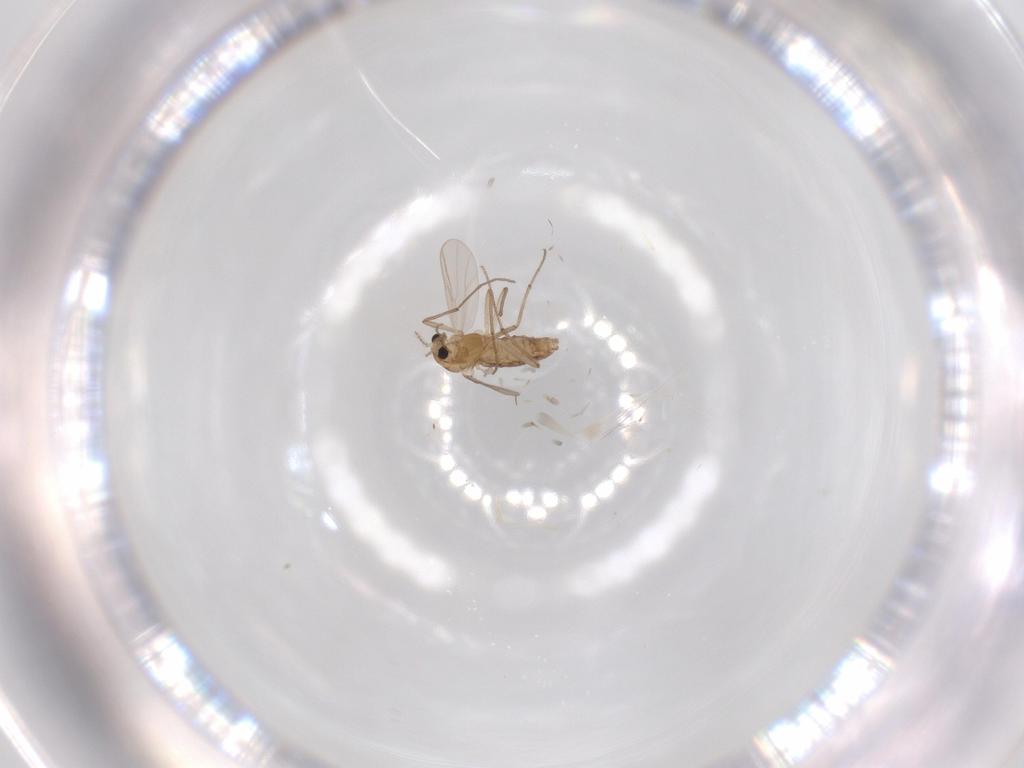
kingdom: Animalia
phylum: Arthropoda
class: Insecta
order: Diptera
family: Chironomidae
